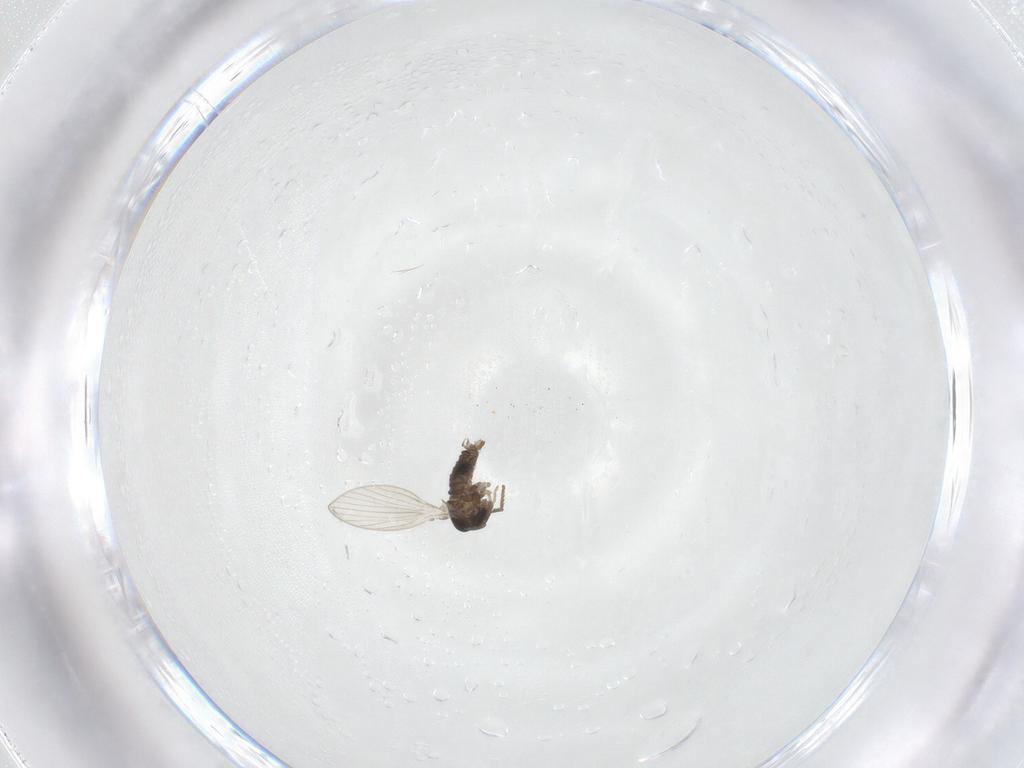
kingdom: Animalia
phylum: Arthropoda
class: Insecta
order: Diptera
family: Psychodidae
